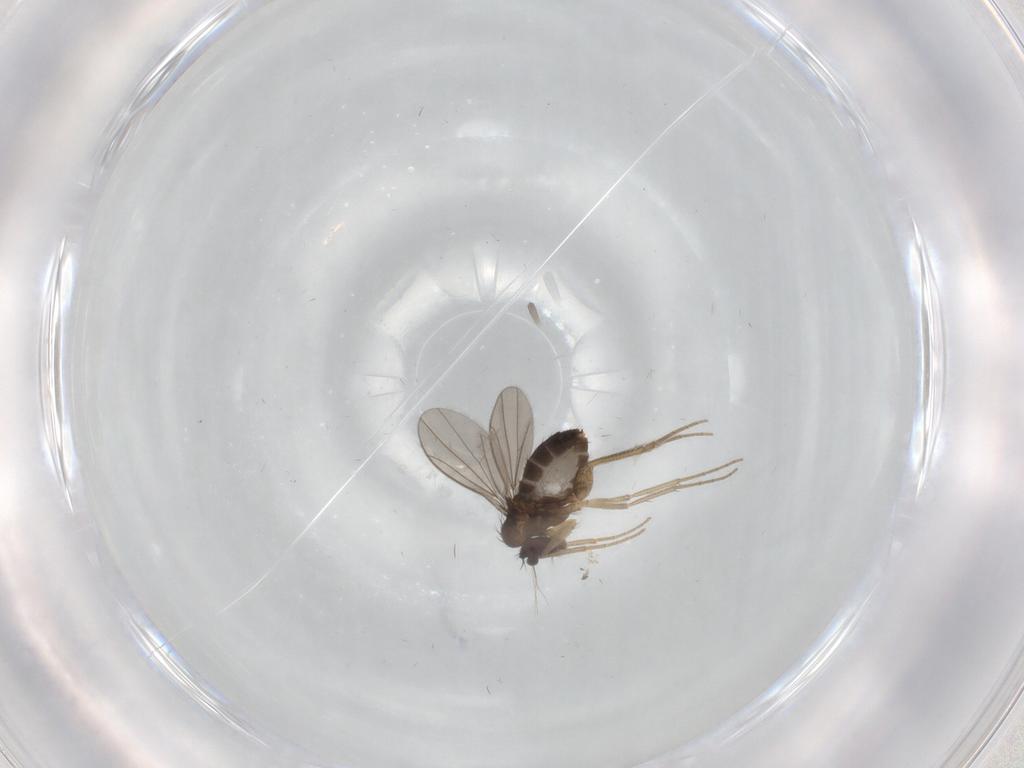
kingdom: Animalia
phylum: Arthropoda
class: Insecta
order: Diptera
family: Dolichopodidae
